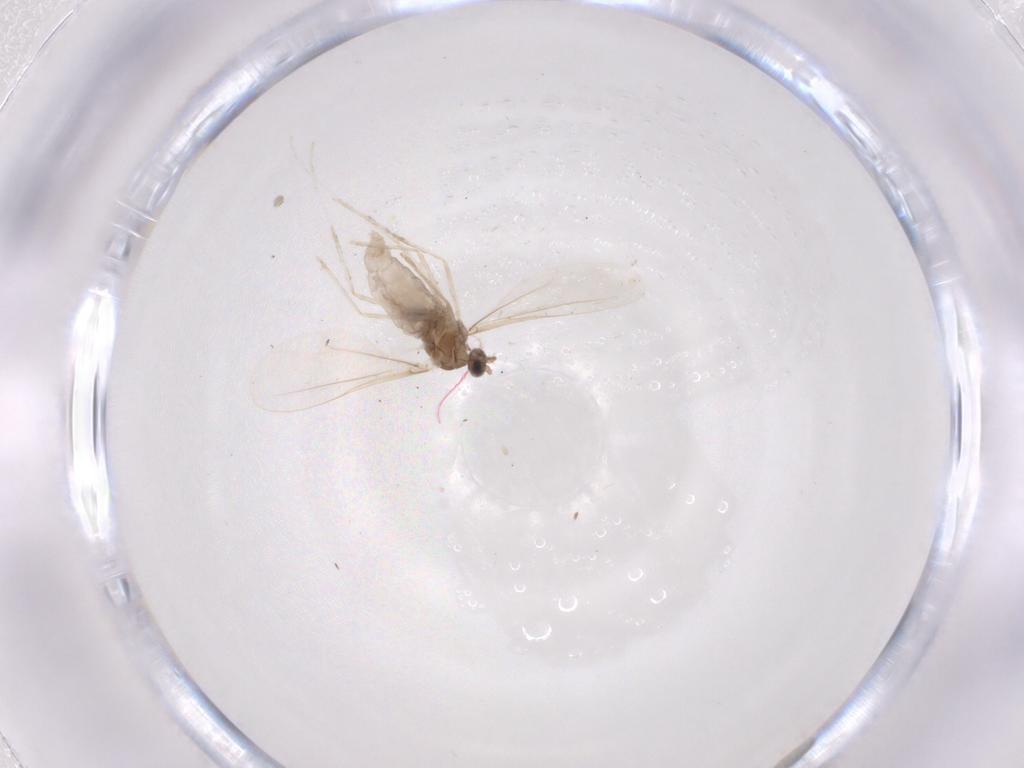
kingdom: Animalia
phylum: Arthropoda
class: Insecta
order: Diptera
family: Cecidomyiidae
